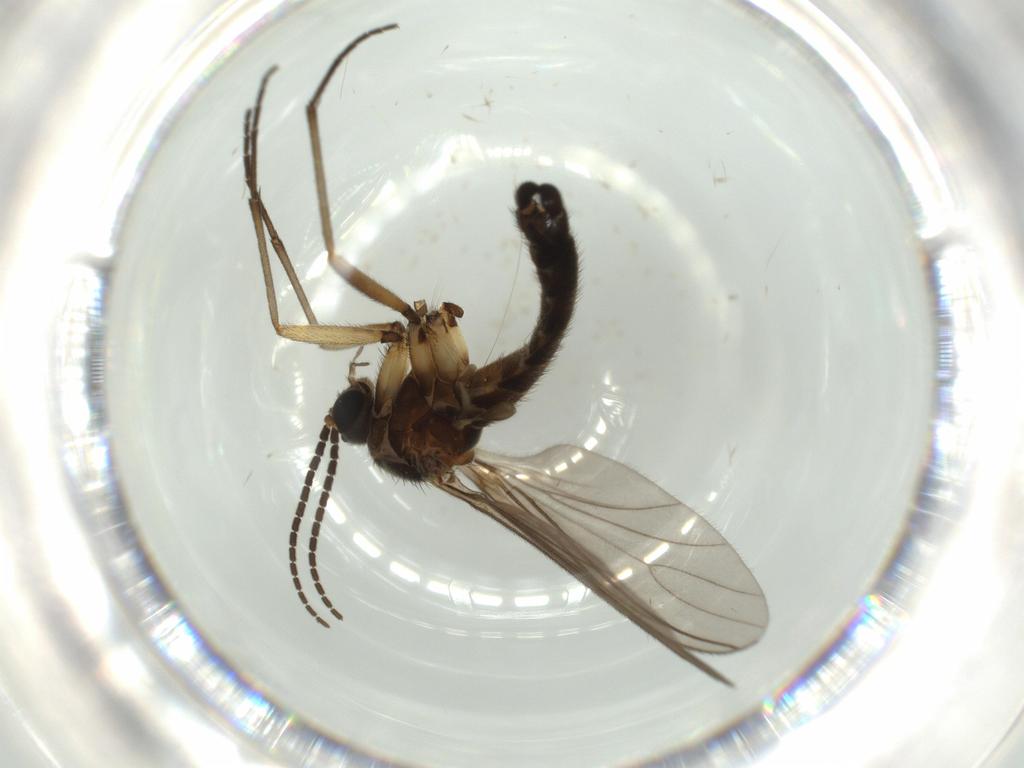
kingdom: Animalia
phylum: Arthropoda
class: Insecta
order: Diptera
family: Sciaridae
